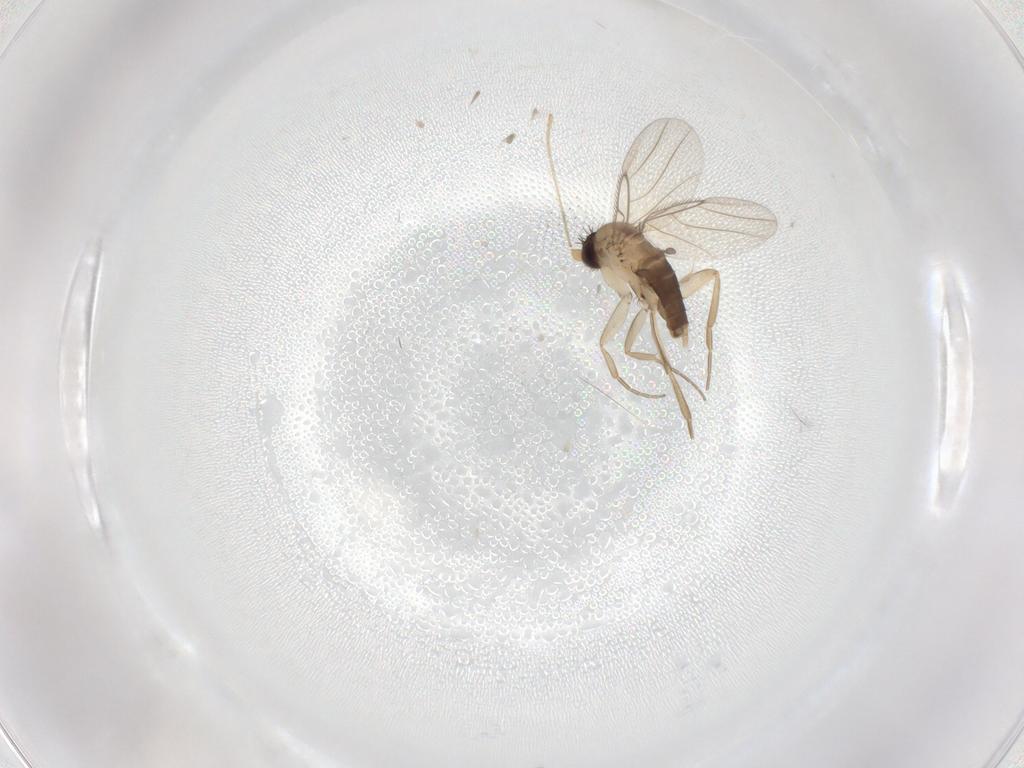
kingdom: Animalia
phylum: Arthropoda
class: Insecta
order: Diptera
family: Phoridae
